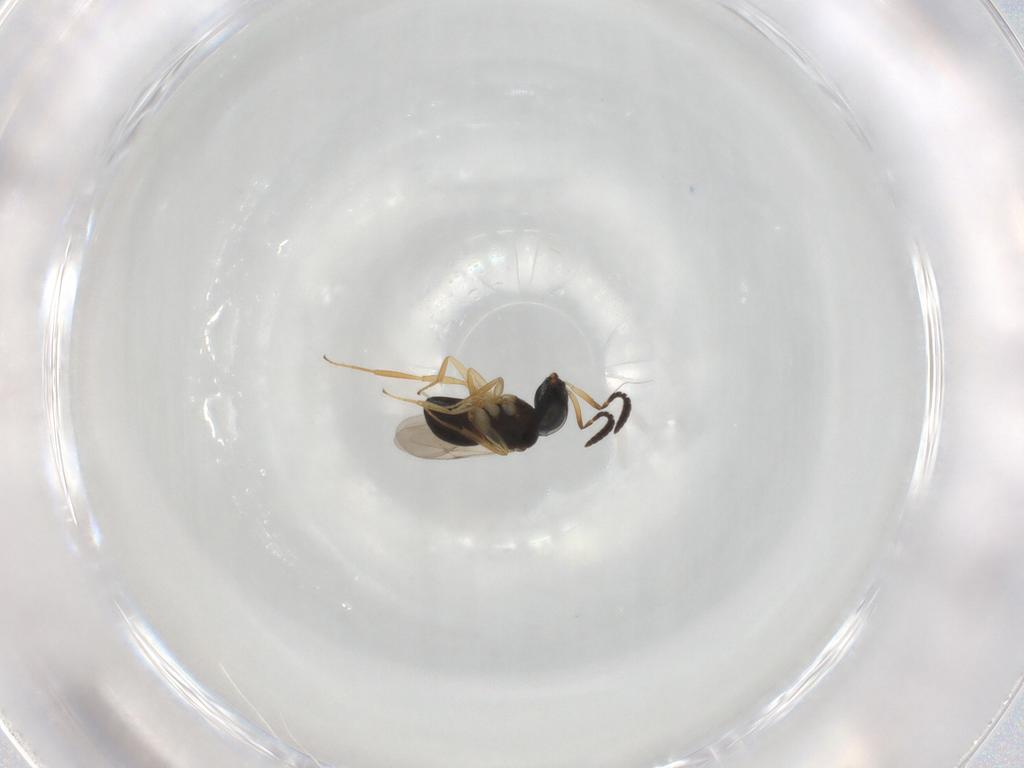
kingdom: Animalia
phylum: Arthropoda
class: Insecta
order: Hymenoptera
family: Scelionidae
